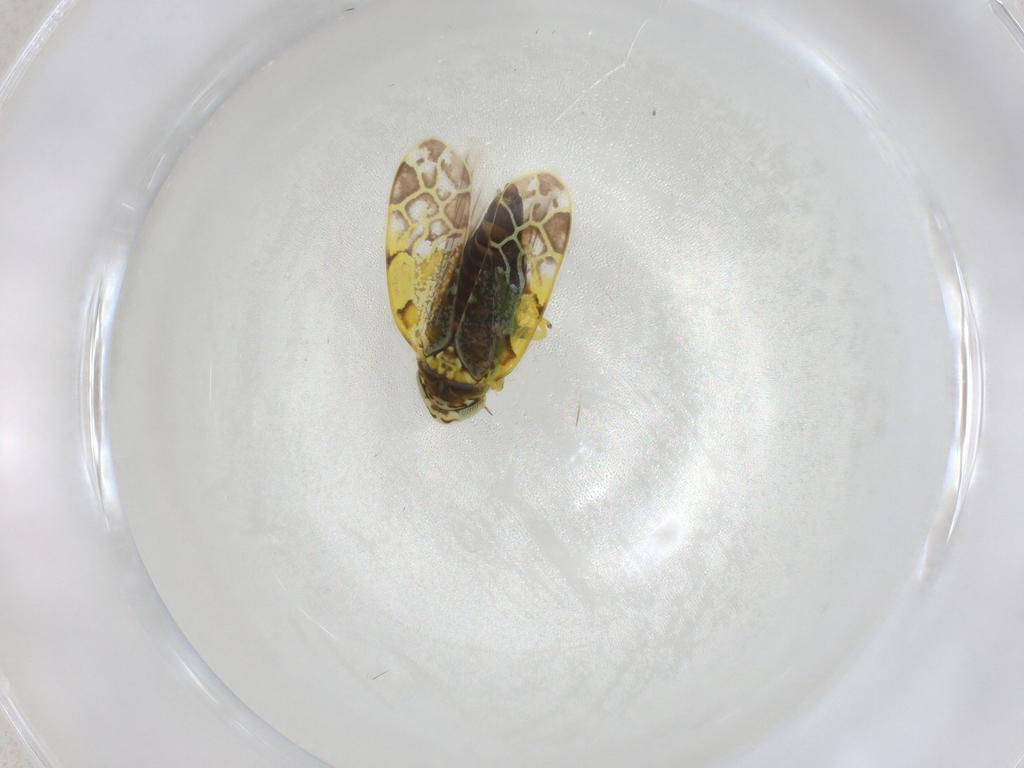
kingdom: Animalia
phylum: Arthropoda
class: Insecta
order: Hemiptera
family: Cicadellidae
